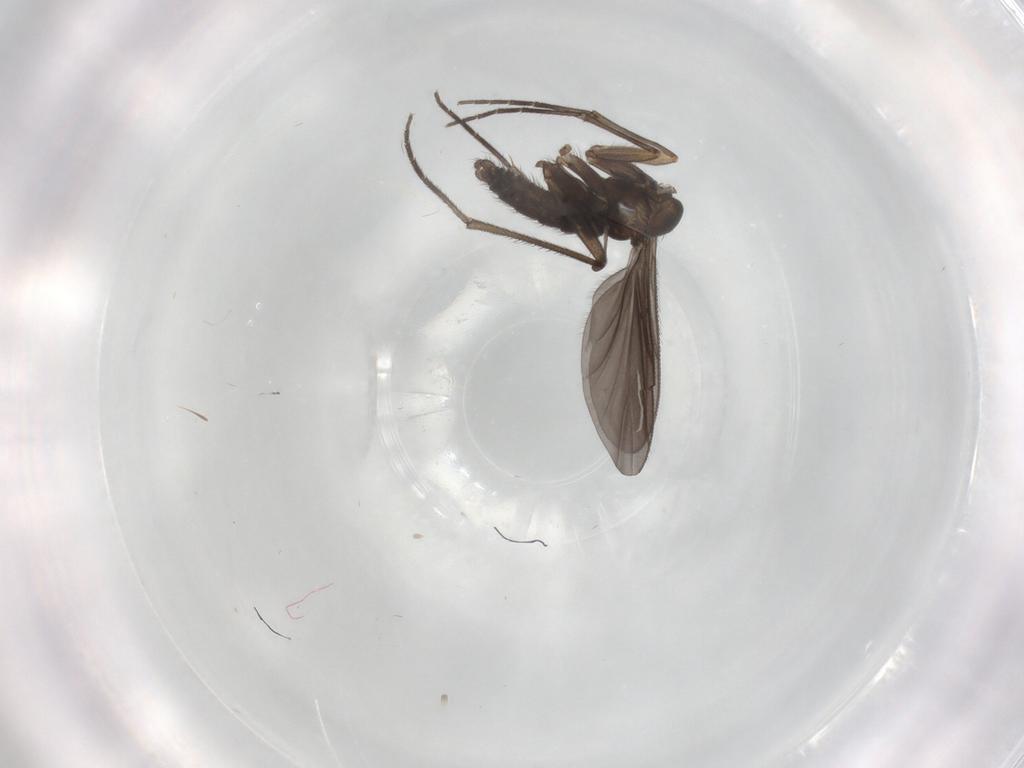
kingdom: Animalia
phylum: Arthropoda
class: Insecta
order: Diptera
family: Sciaridae
